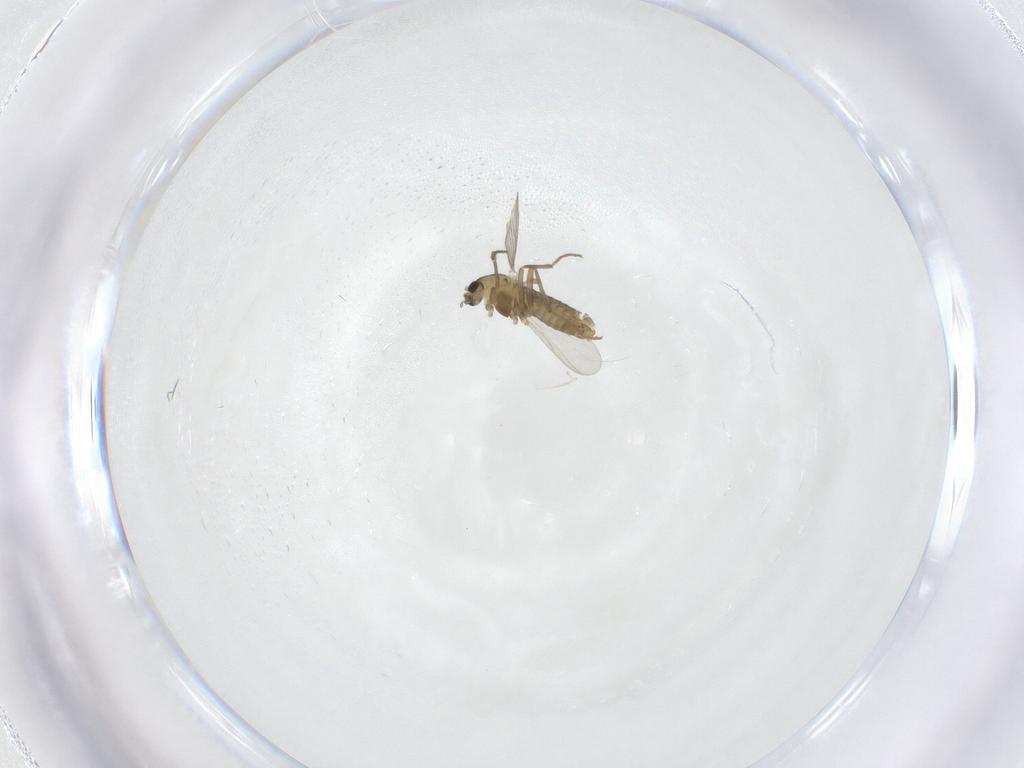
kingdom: Animalia
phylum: Arthropoda
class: Insecta
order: Diptera
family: Chironomidae
